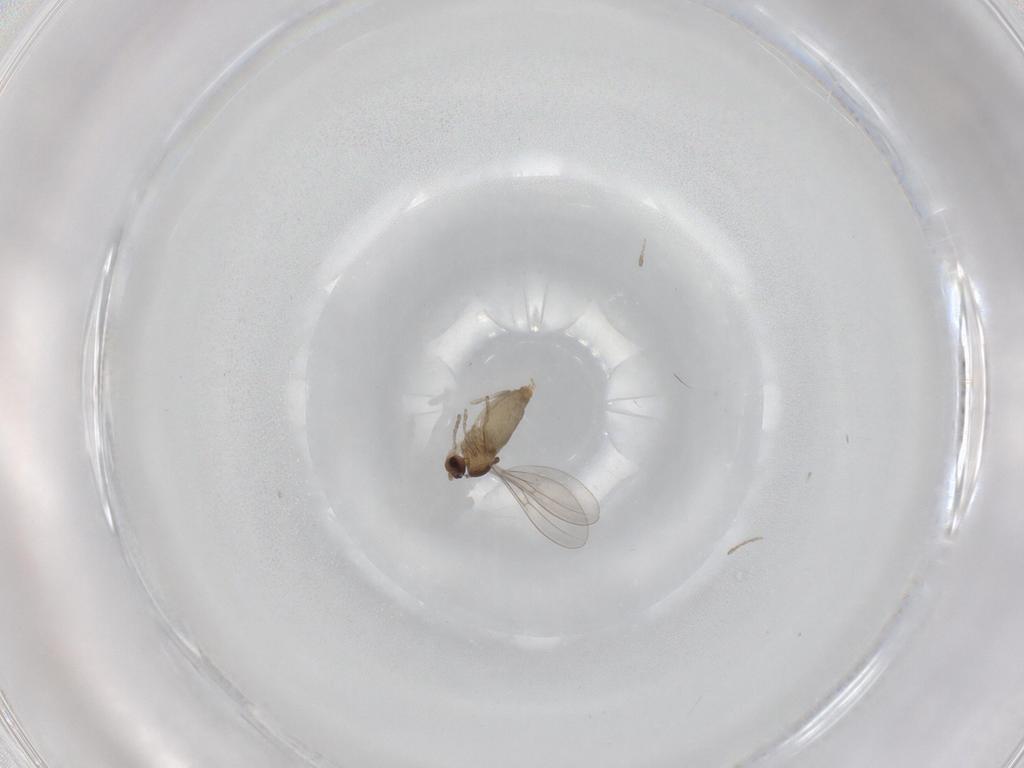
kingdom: Animalia
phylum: Arthropoda
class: Insecta
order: Diptera
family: Cecidomyiidae
